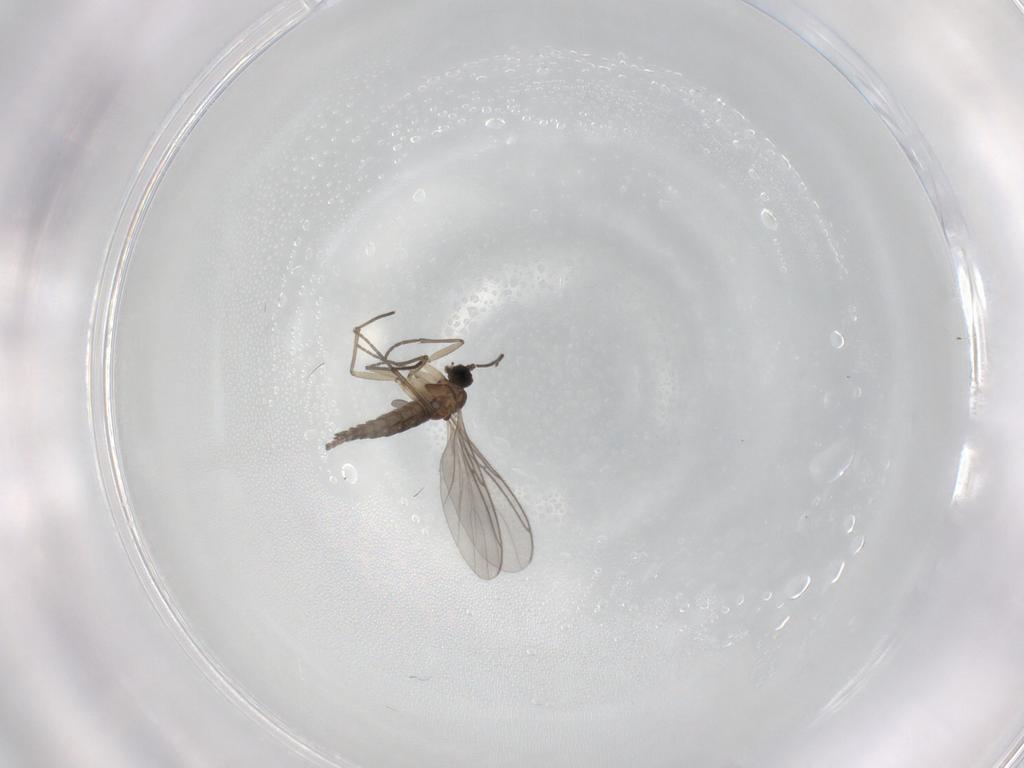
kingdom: Animalia
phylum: Arthropoda
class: Insecta
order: Diptera
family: Sciaridae
